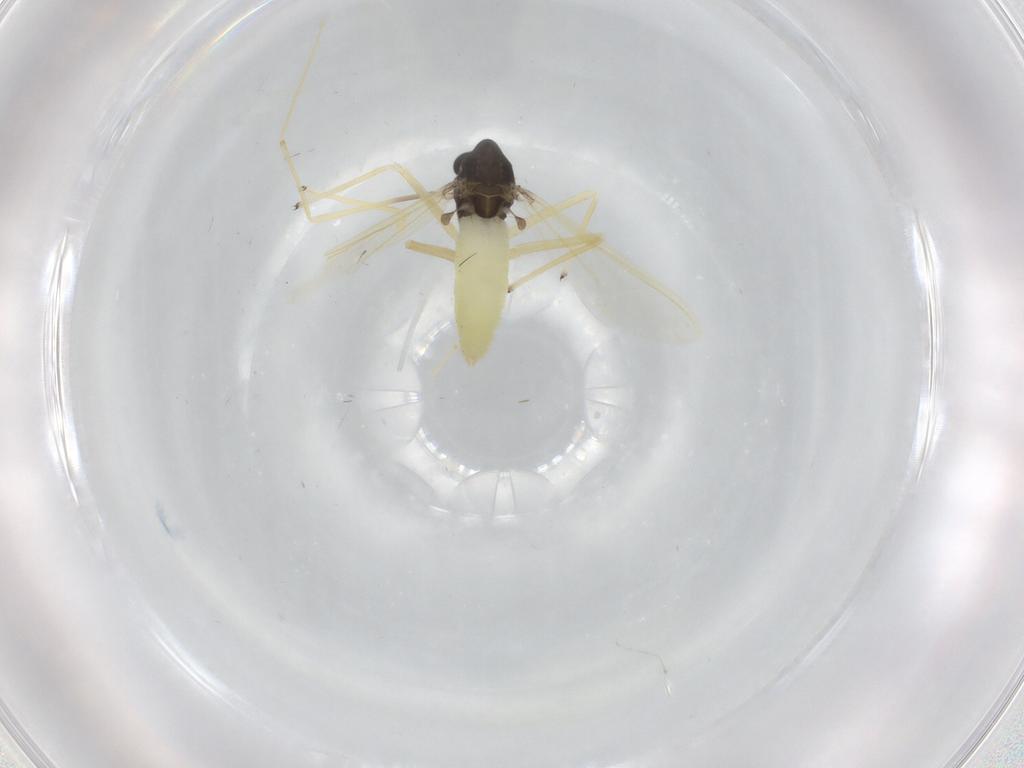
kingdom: Animalia
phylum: Arthropoda
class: Insecta
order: Diptera
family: Chironomidae
